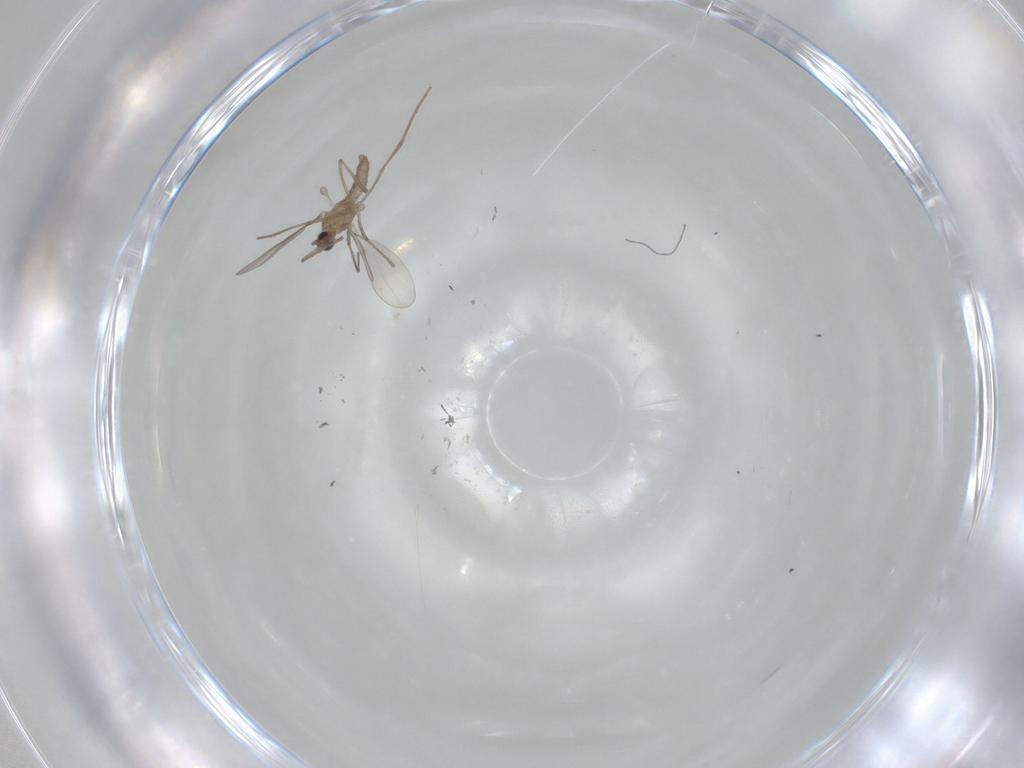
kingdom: Animalia
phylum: Arthropoda
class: Insecta
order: Diptera
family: Cecidomyiidae
